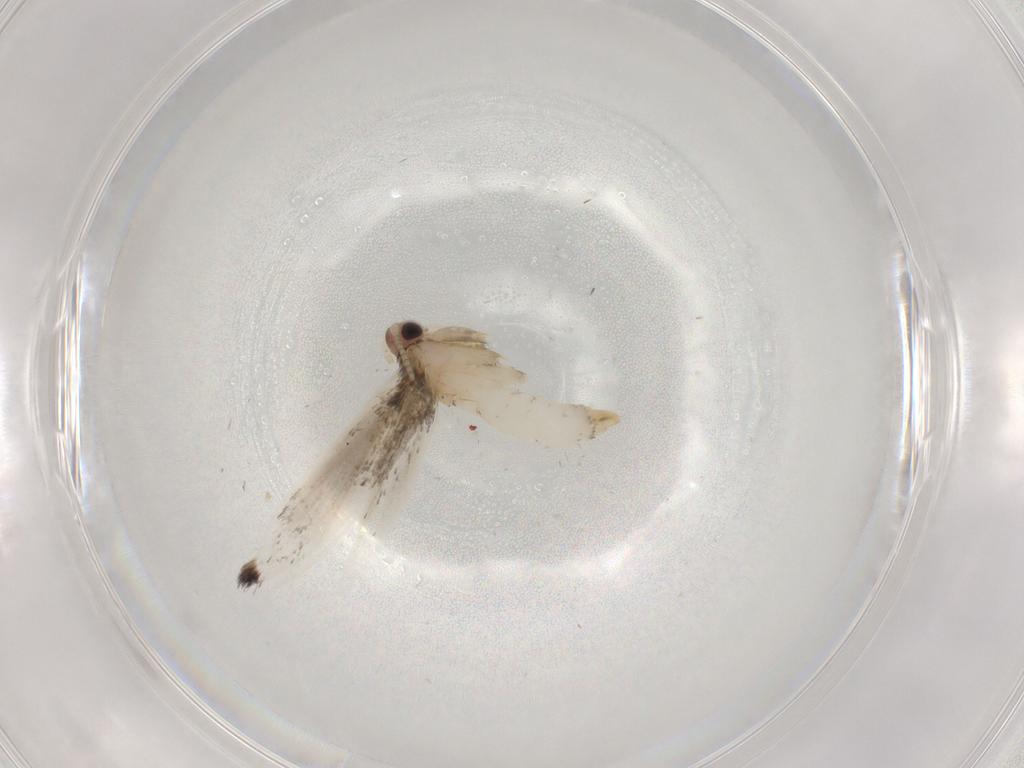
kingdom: Animalia
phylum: Arthropoda
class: Insecta
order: Lepidoptera
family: Tineidae
